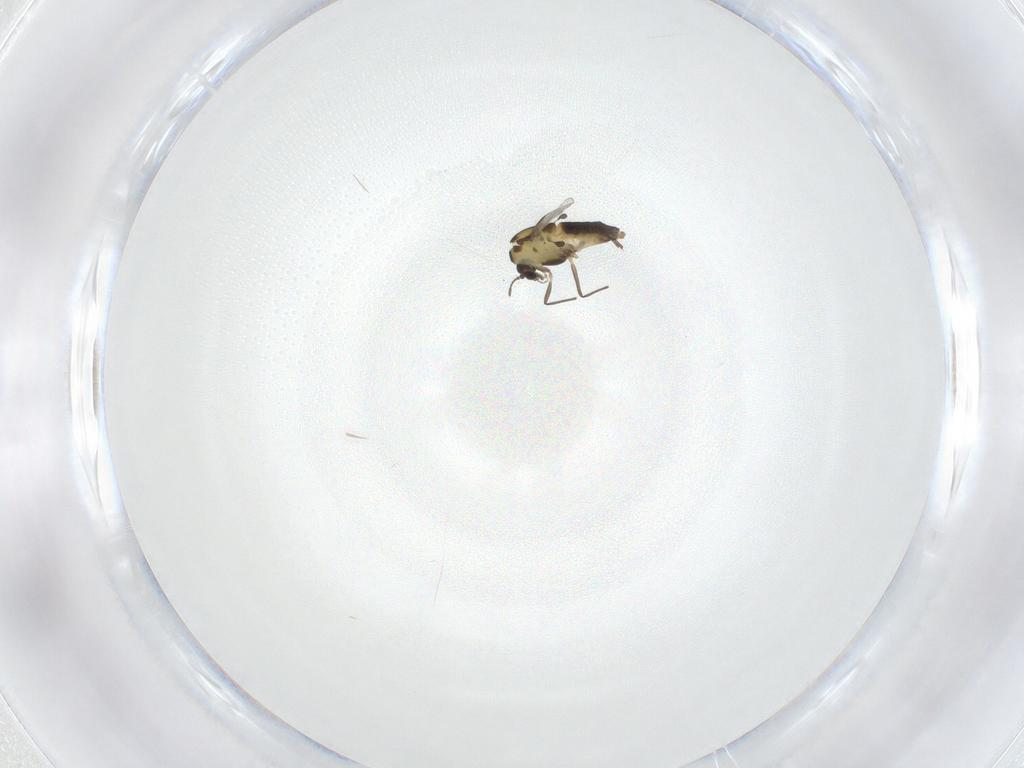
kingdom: Animalia
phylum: Arthropoda
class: Insecta
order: Diptera
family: Chironomidae
